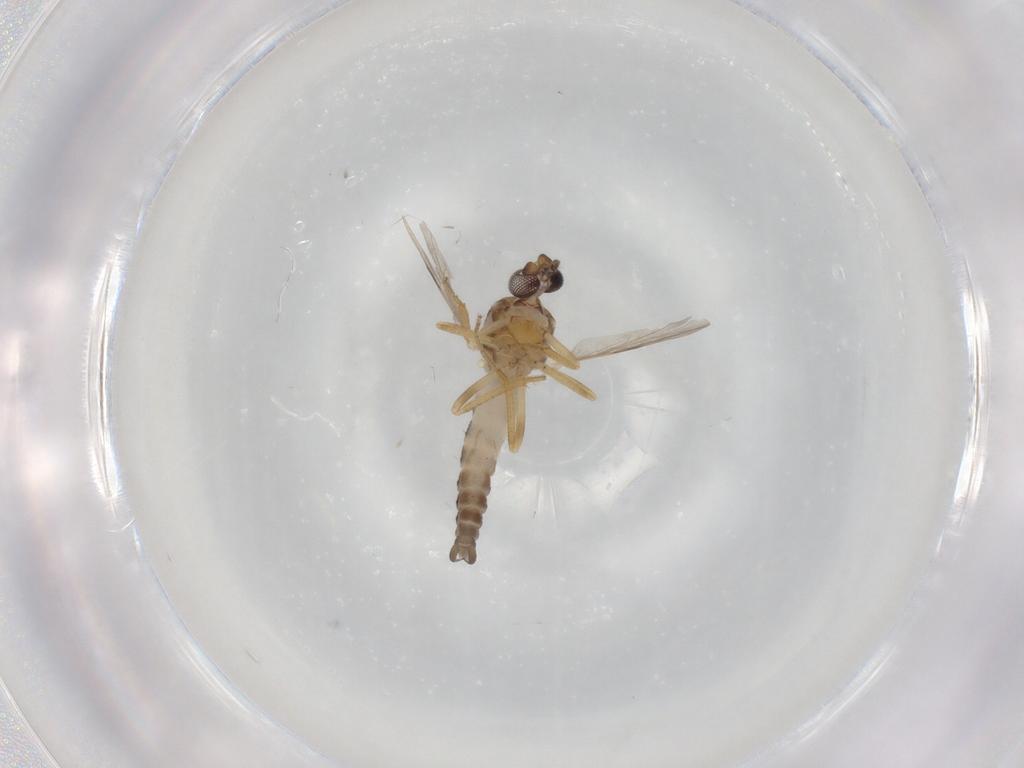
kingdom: Animalia
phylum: Arthropoda
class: Insecta
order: Diptera
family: Ceratopogonidae
